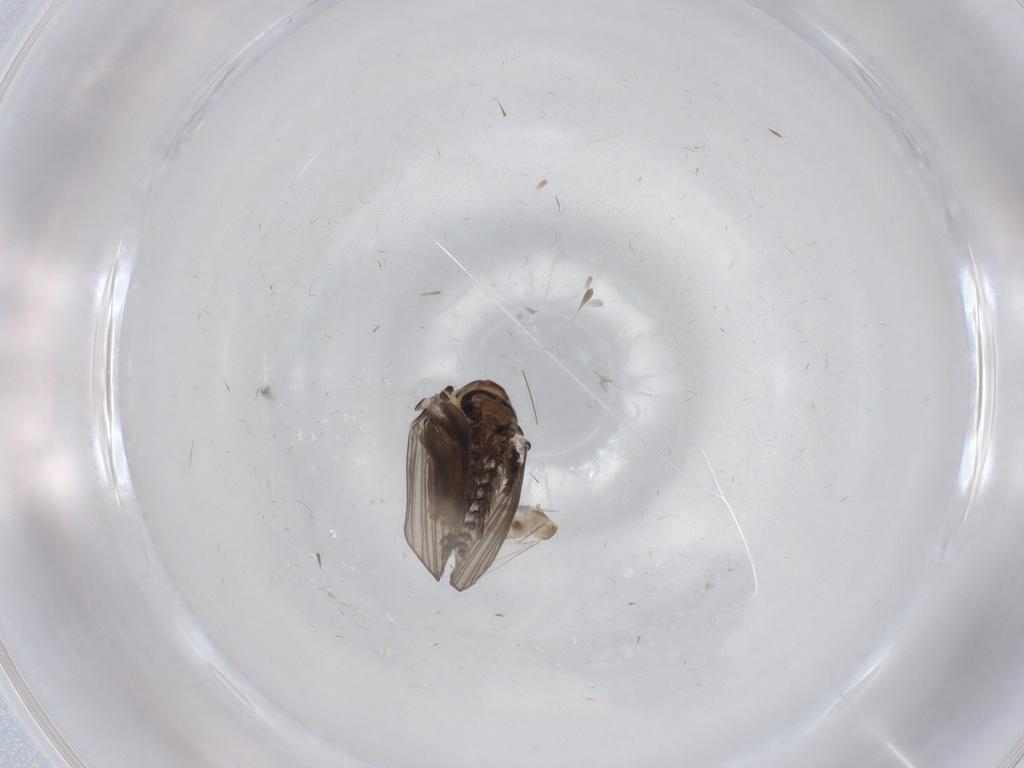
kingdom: Animalia
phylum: Arthropoda
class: Insecta
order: Diptera
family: Psychodidae
